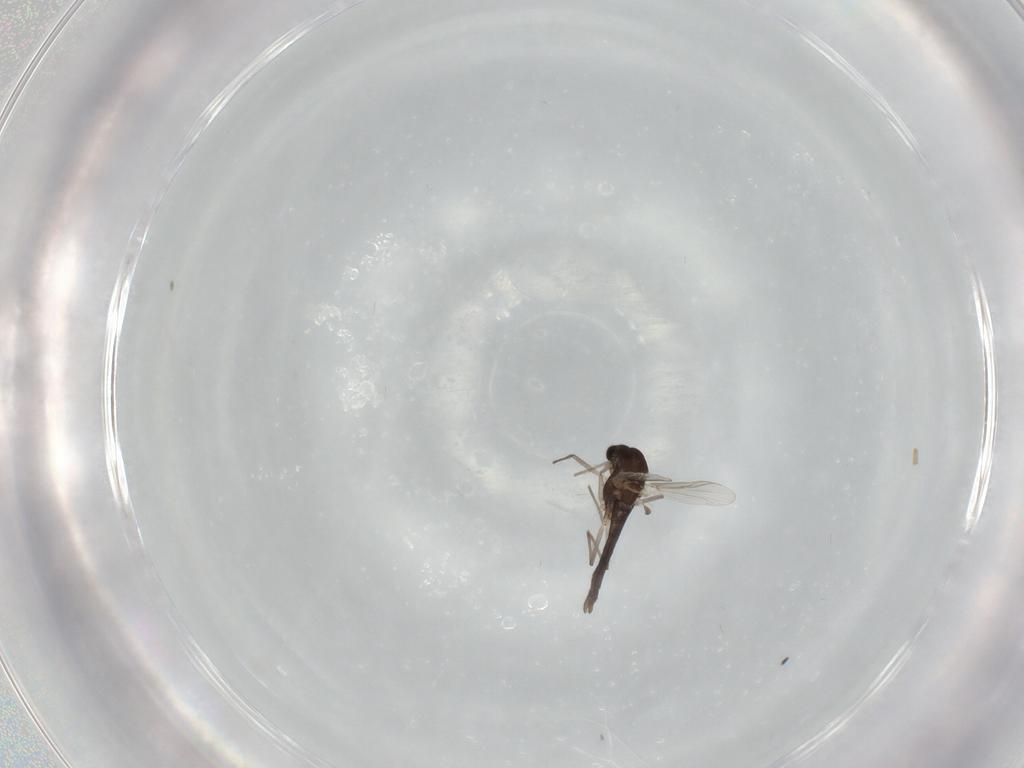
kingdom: Animalia
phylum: Arthropoda
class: Insecta
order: Diptera
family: Chironomidae
